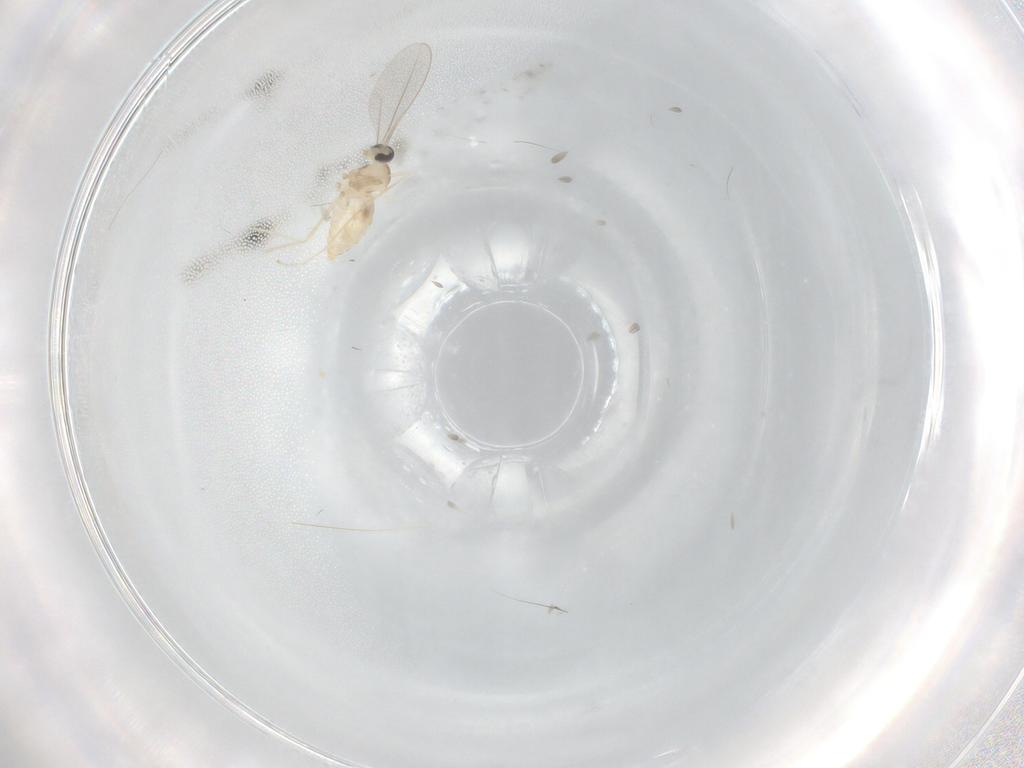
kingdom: Animalia
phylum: Arthropoda
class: Insecta
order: Diptera
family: Cecidomyiidae
